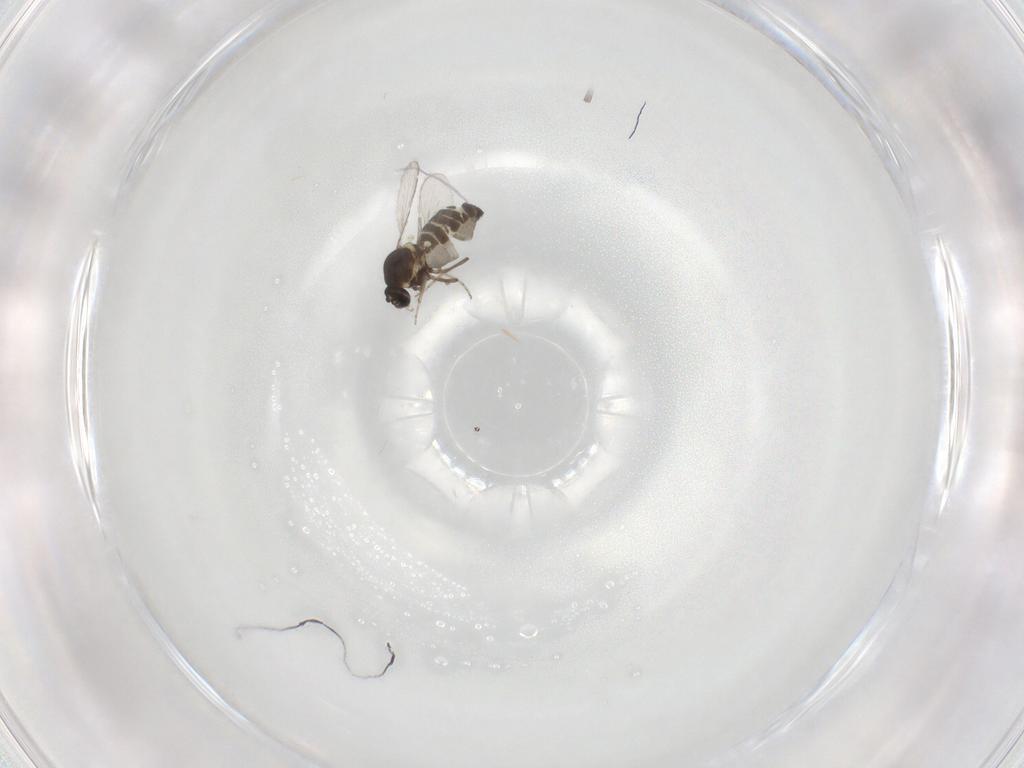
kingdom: Animalia
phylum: Arthropoda
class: Insecta
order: Diptera
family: Ceratopogonidae
